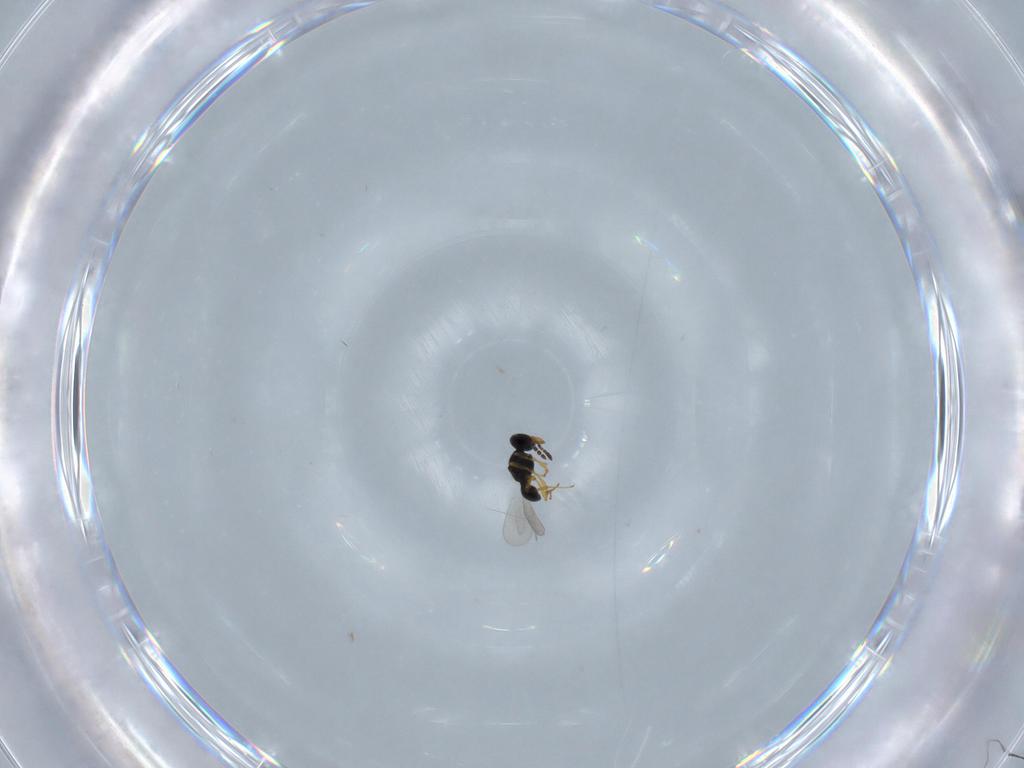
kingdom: Animalia
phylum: Arthropoda
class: Insecta
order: Hymenoptera
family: Platygastridae
